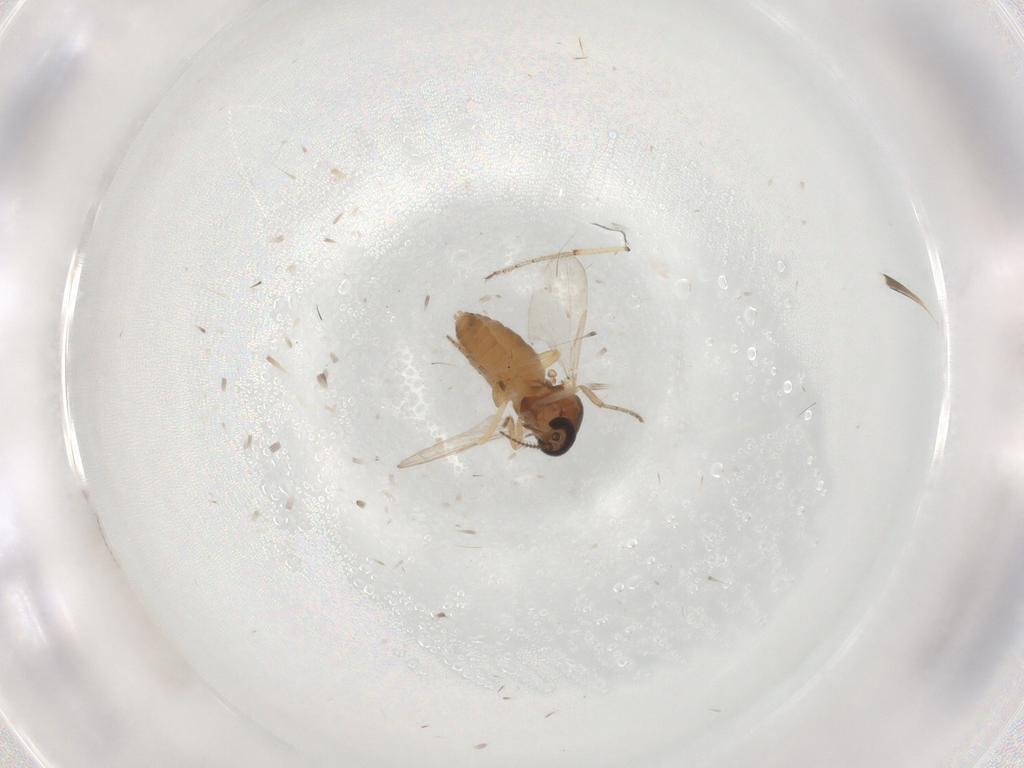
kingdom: Animalia
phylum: Arthropoda
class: Insecta
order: Diptera
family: Ceratopogonidae
